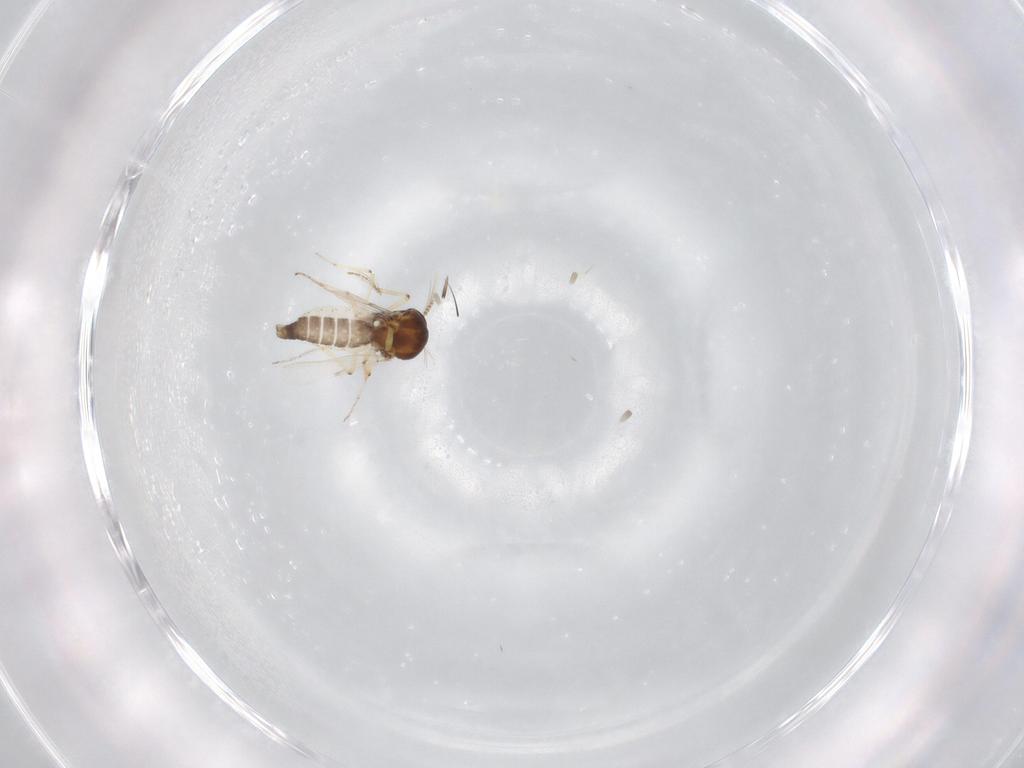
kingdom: Animalia
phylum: Arthropoda
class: Insecta
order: Diptera
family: Ceratopogonidae
